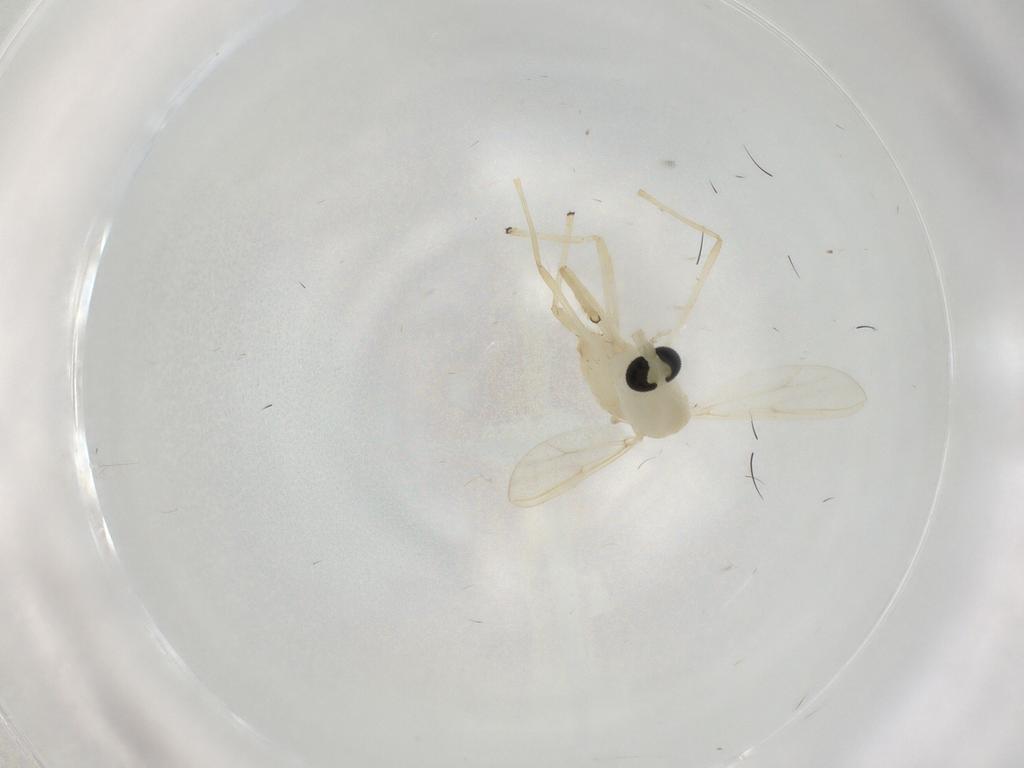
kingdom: Animalia
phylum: Arthropoda
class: Insecta
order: Diptera
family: Chironomidae
